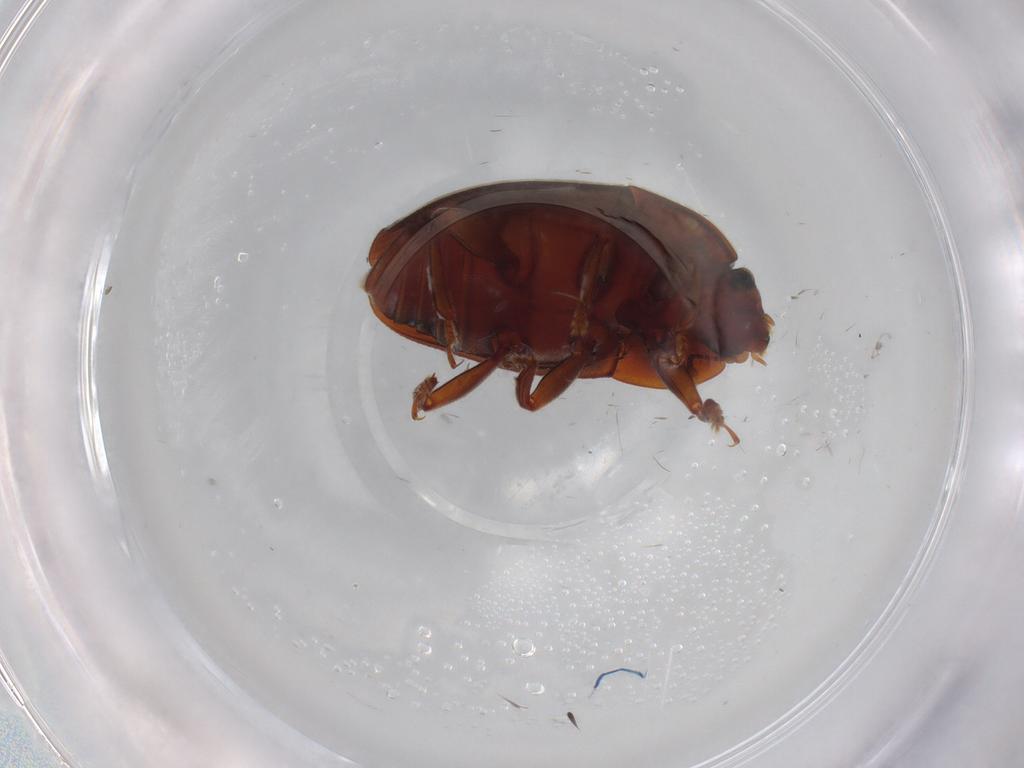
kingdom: Animalia
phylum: Arthropoda
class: Insecta
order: Coleoptera
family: Nitidulidae
